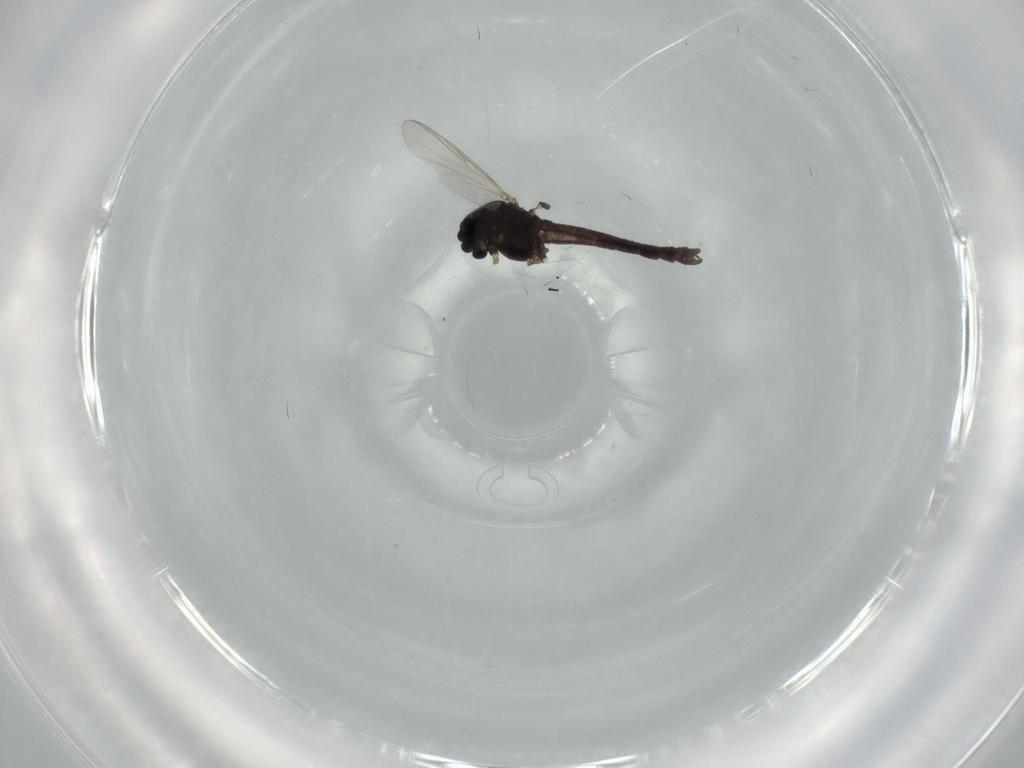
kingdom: Animalia
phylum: Arthropoda
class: Insecta
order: Diptera
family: Chironomidae
